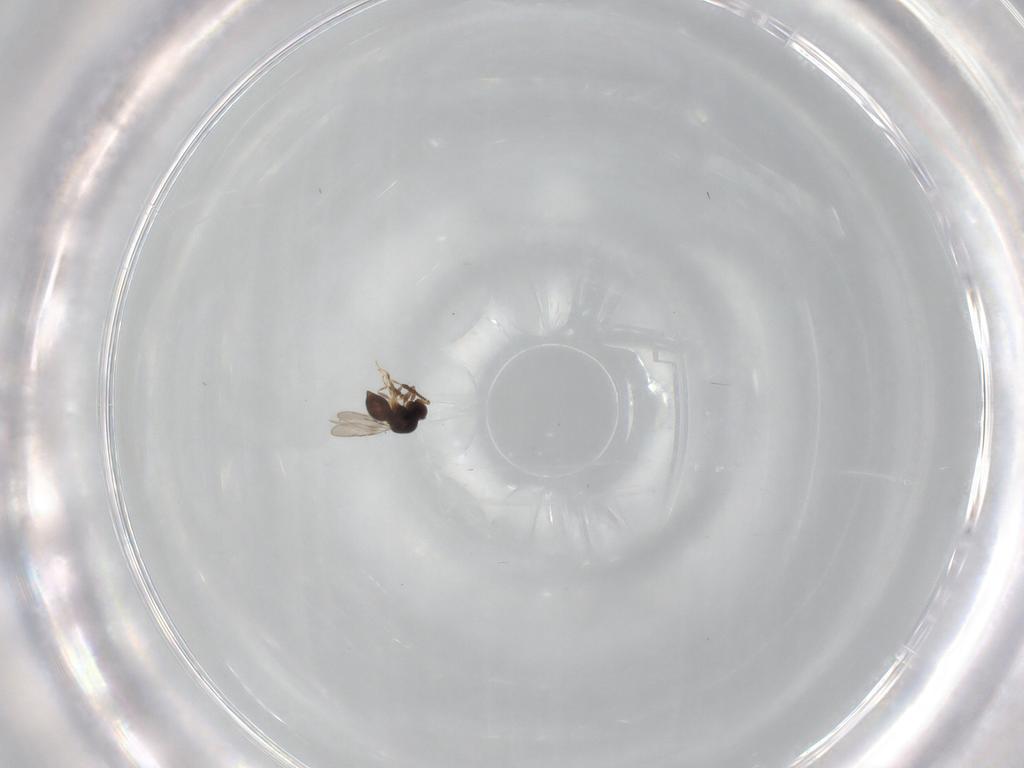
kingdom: Animalia
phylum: Arthropoda
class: Insecta
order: Hymenoptera
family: Ceraphronidae
